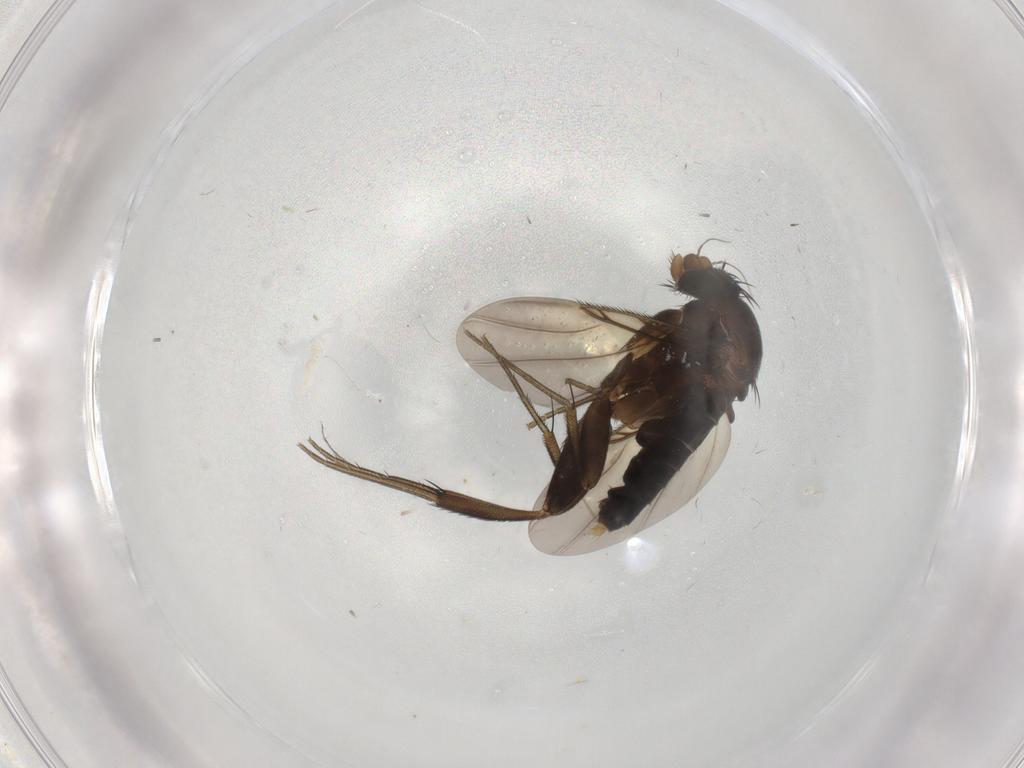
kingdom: Animalia
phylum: Arthropoda
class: Insecta
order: Diptera
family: Phoridae
